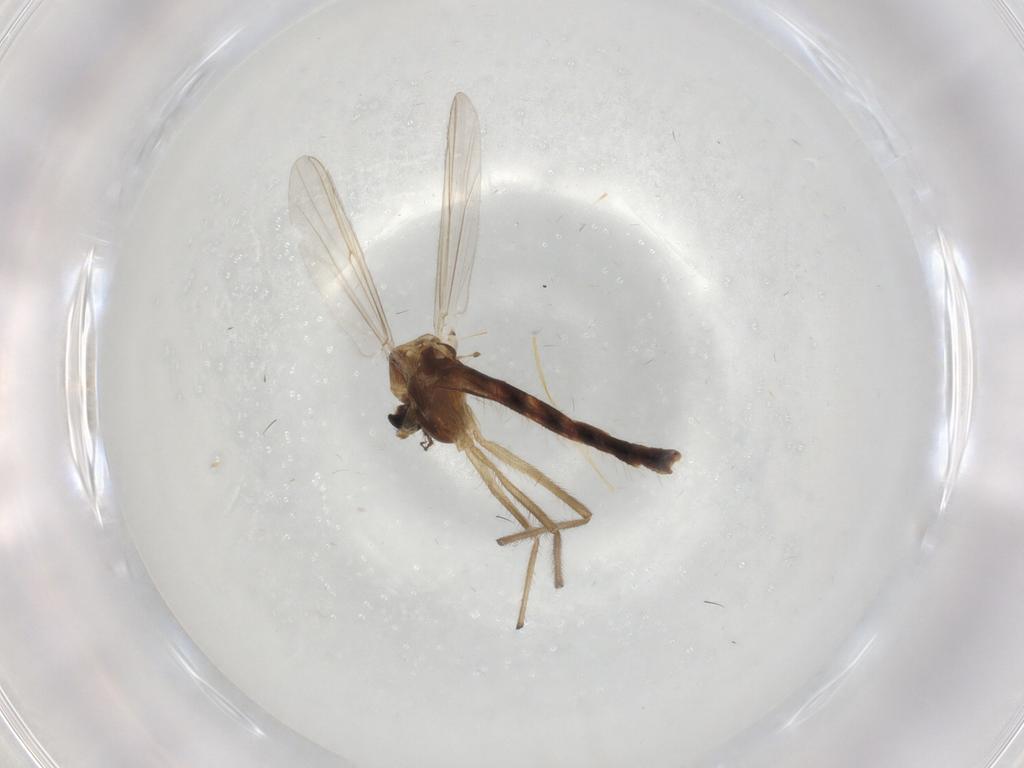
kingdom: Animalia
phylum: Arthropoda
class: Insecta
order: Diptera
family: Chironomidae
